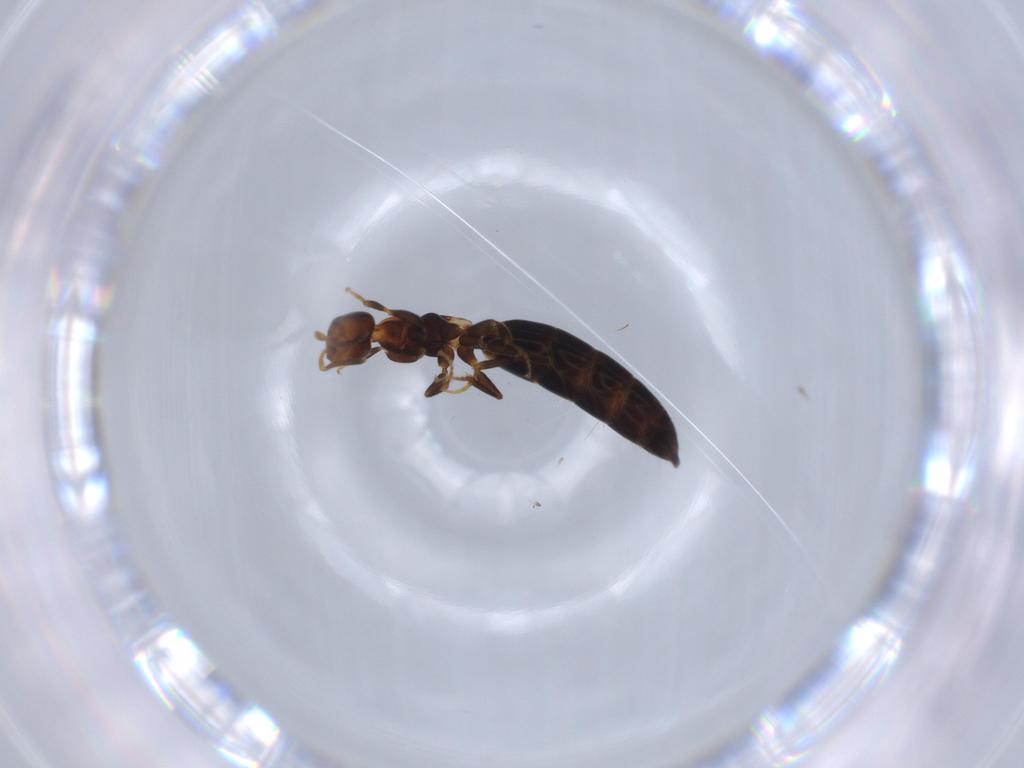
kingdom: Animalia
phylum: Arthropoda
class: Insecta
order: Hymenoptera
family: Bethylidae
